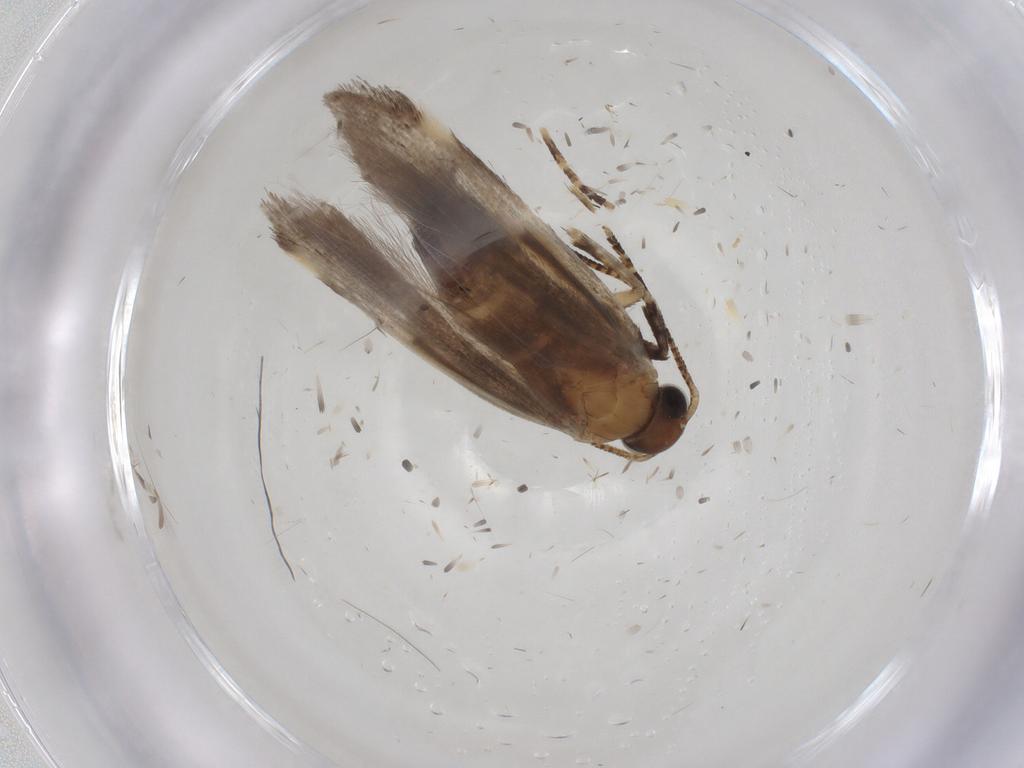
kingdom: Animalia
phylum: Arthropoda
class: Insecta
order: Lepidoptera
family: Gelechiidae
